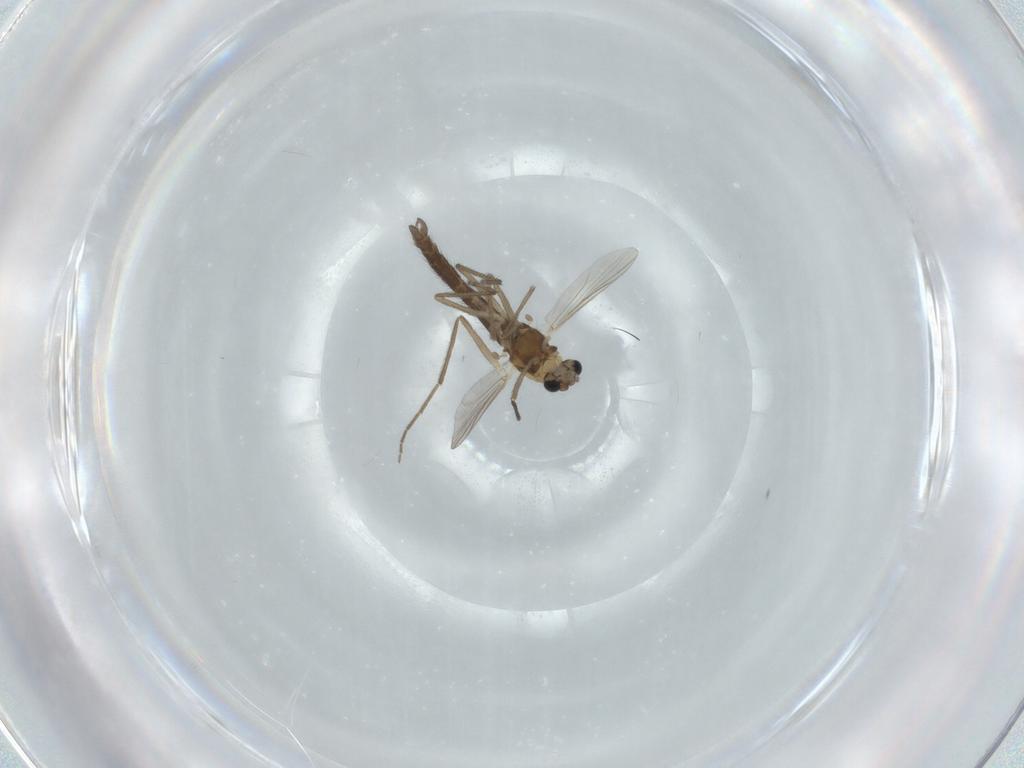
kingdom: Animalia
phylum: Arthropoda
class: Insecta
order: Diptera
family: Chironomidae
